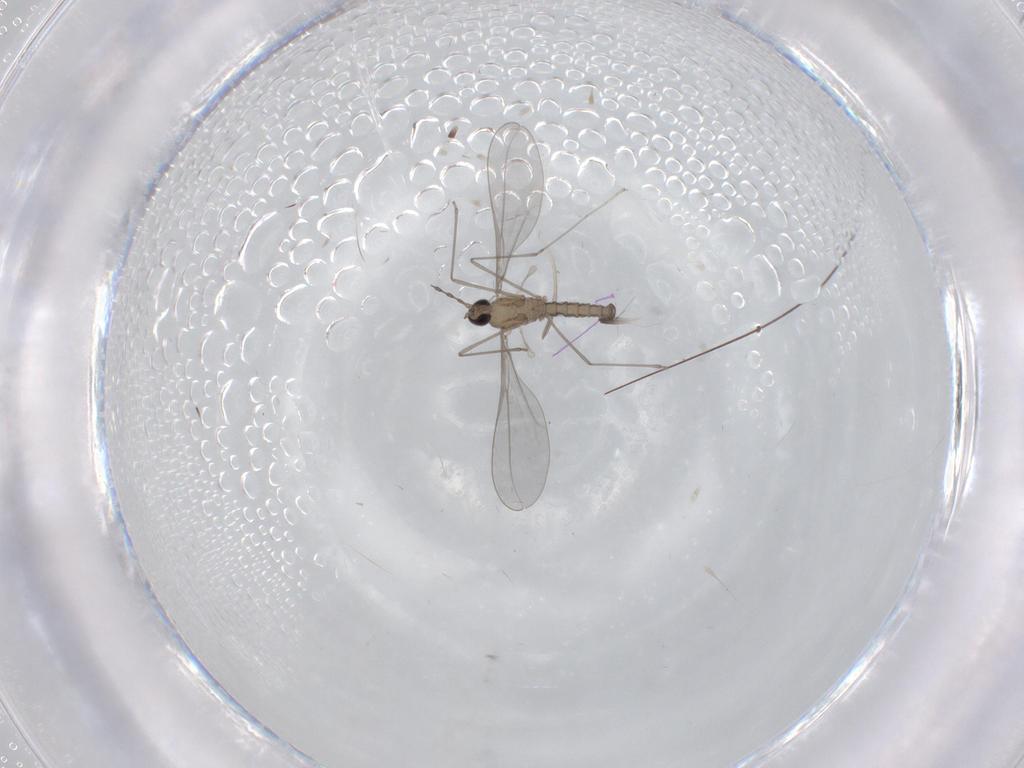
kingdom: Animalia
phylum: Arthropoda
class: Insecta
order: Diptera
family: Cecidomyiidae
